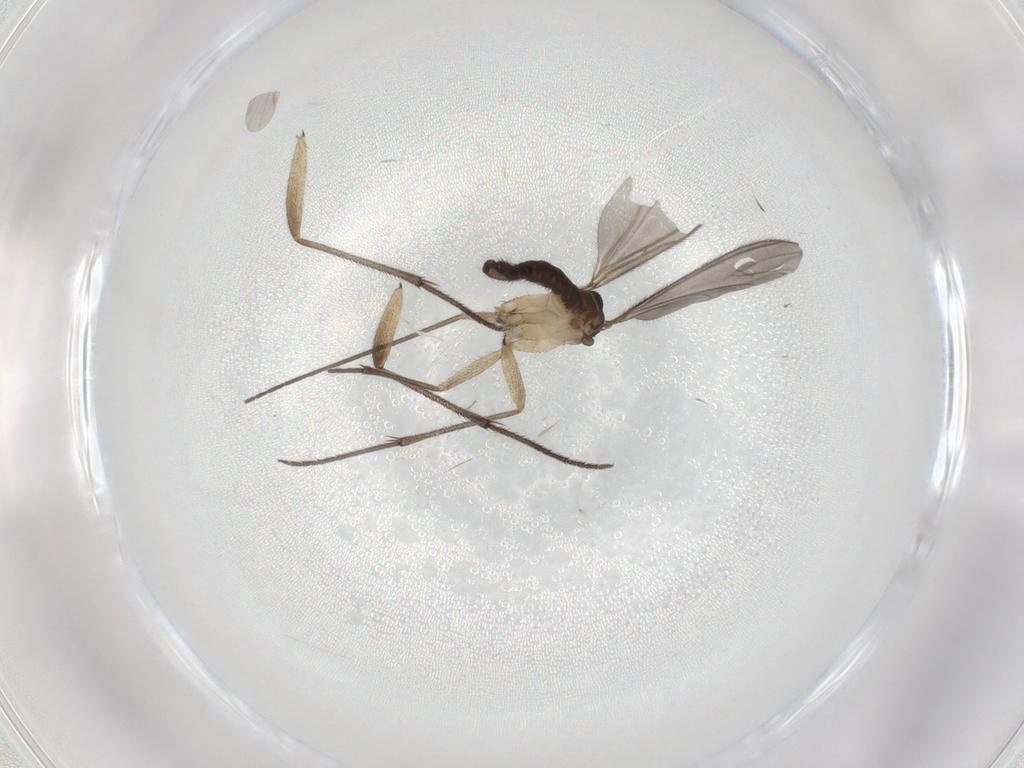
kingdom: Animalia
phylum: Arthropoda
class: Insecta
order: Diptera
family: Sciaridae
